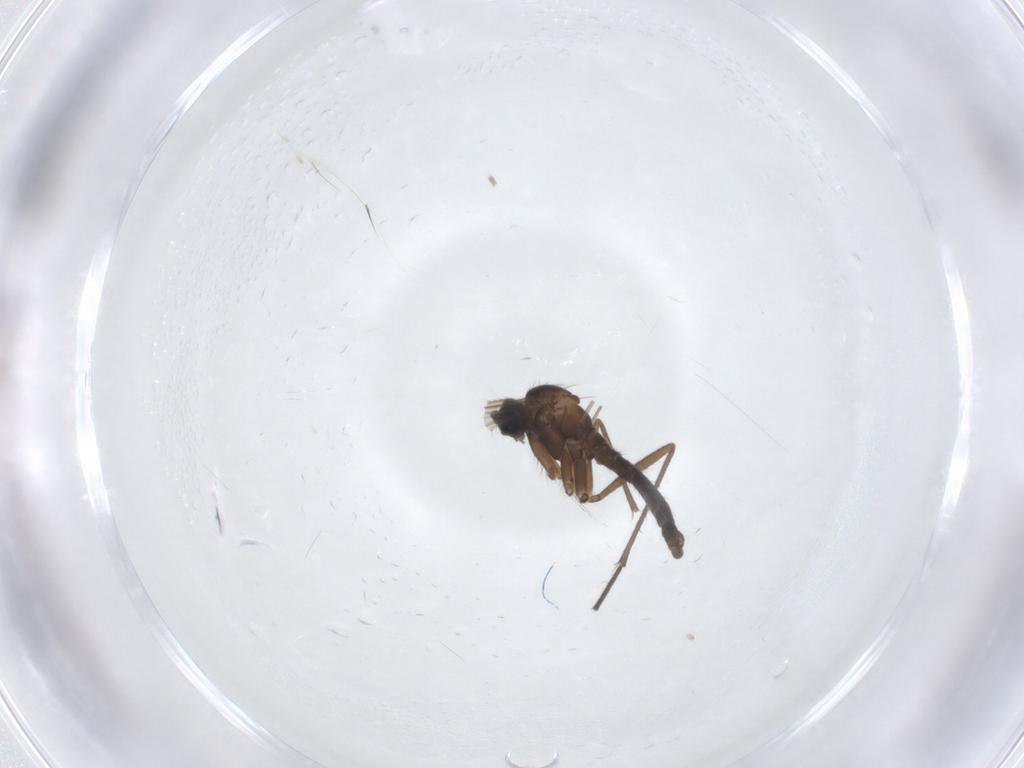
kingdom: Animalia
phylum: Arthropoda
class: Insecta
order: Diptera
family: Sciaridae
